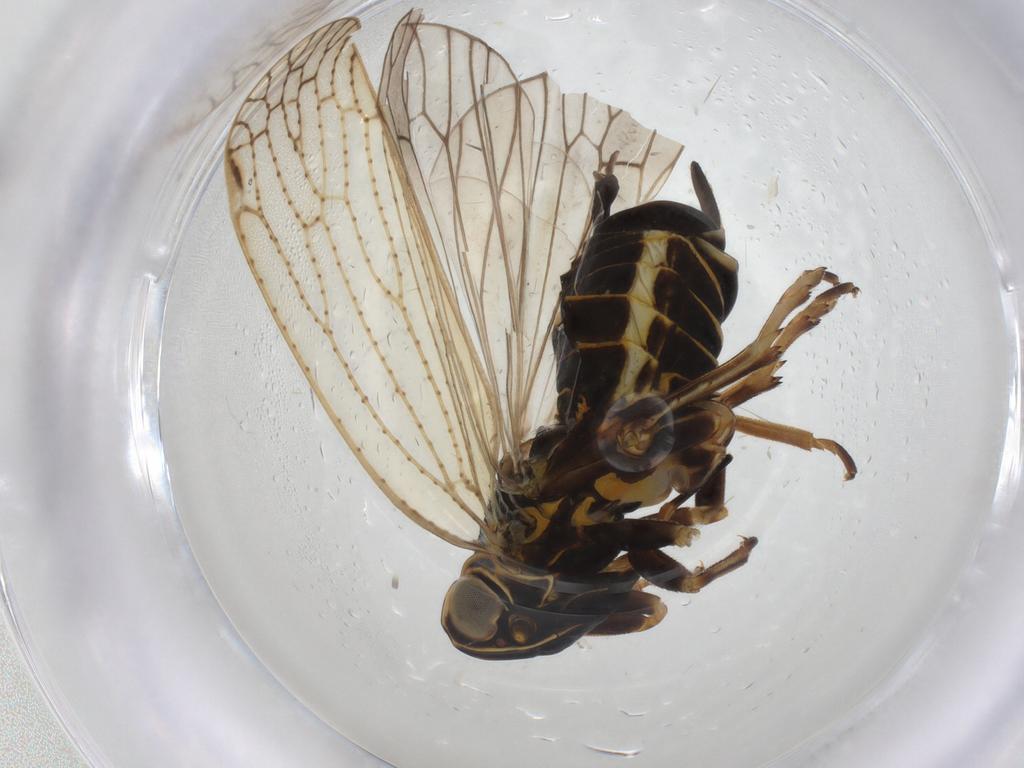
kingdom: Animalia
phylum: Arthropoda
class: Insecta
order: Hemiptera
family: Cixiidae
